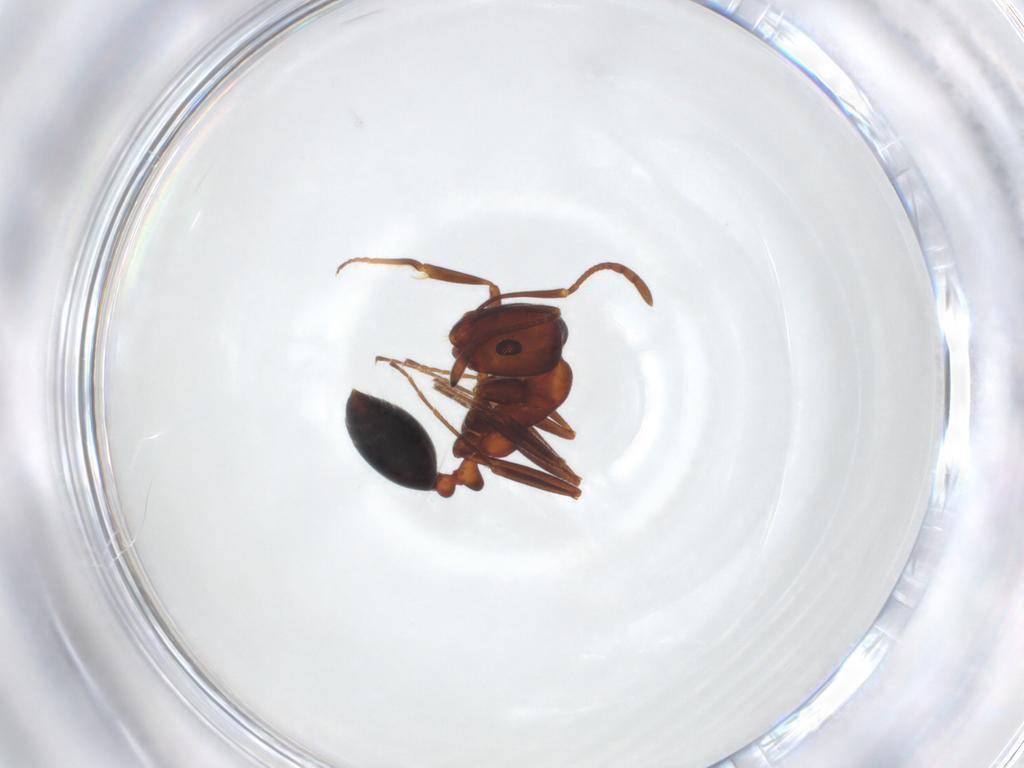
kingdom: Animalia
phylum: Arthropoda
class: Insecta
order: Hymenoptera
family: Formicidae
